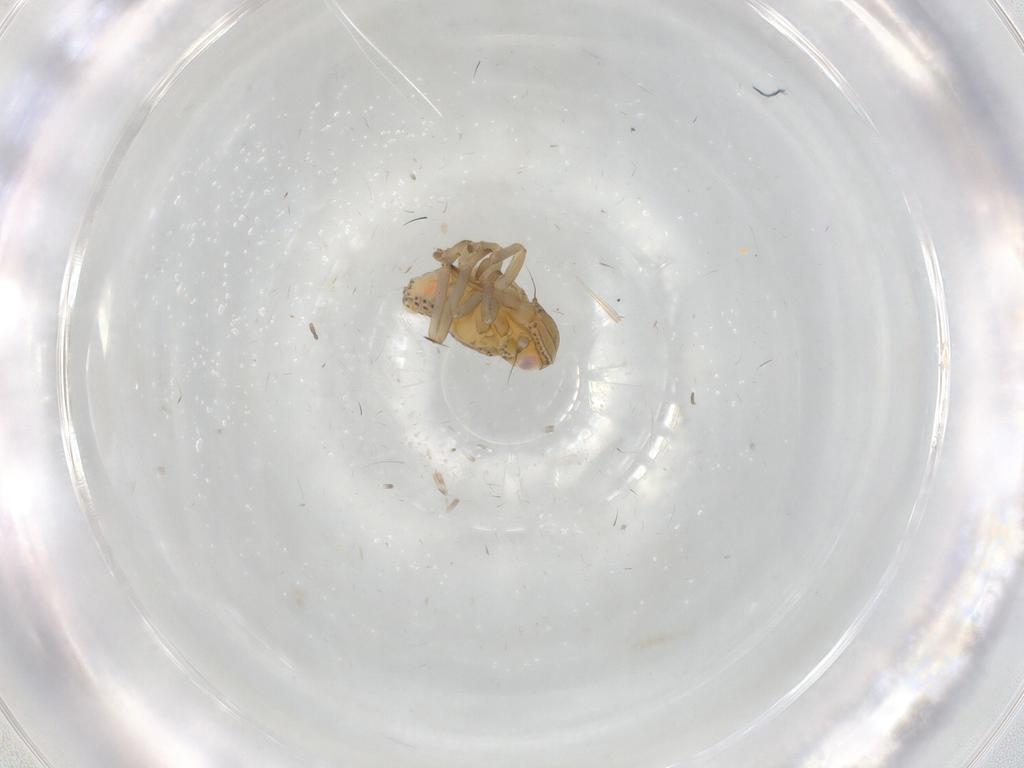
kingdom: Animalia
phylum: Arthropoda
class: Insecta
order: Hemiptera
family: Tropiduchidae
